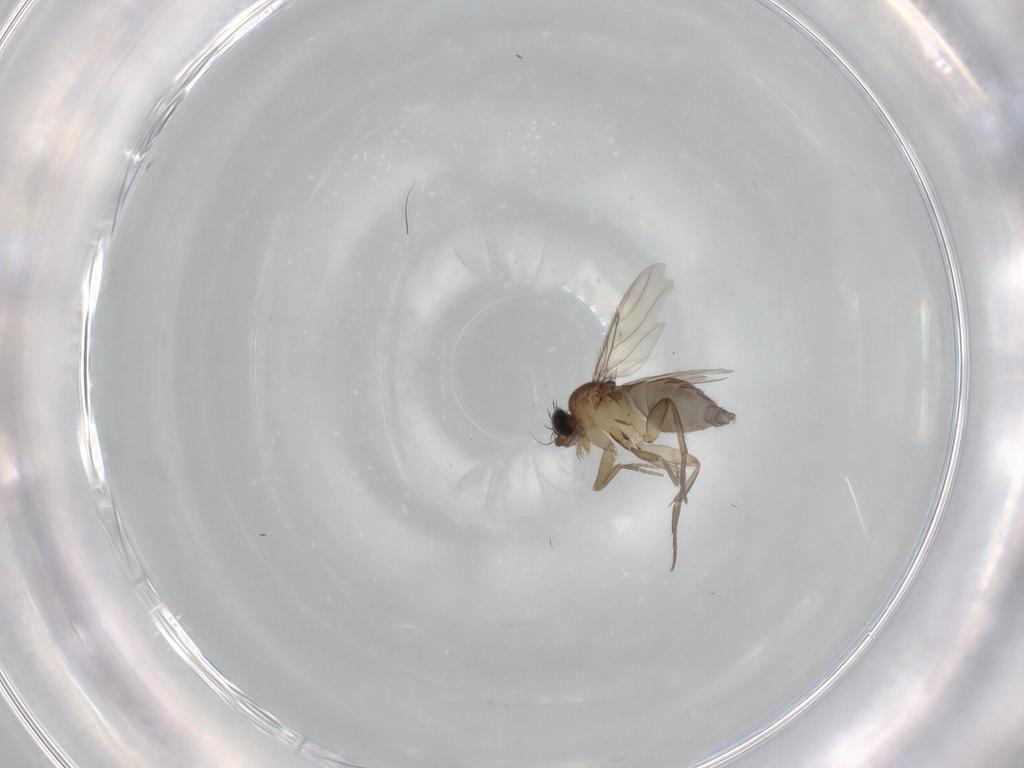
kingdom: Animalia
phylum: Arthropoda
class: Insecta
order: Diptera
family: Phoridae
